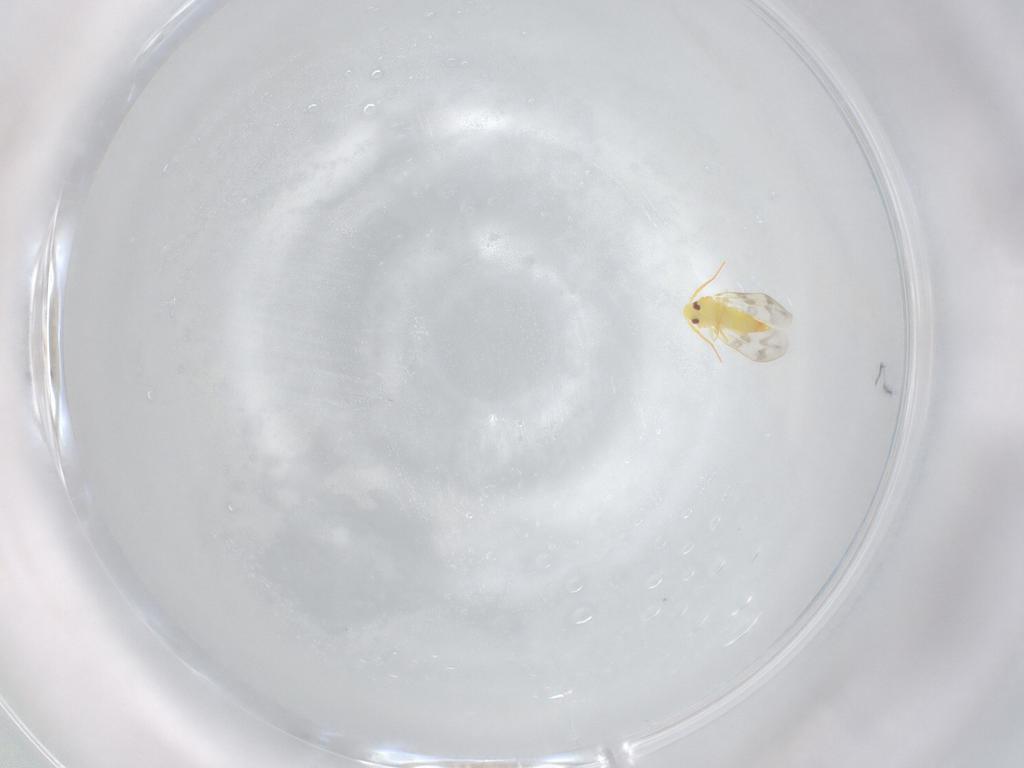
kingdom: Animalia
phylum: Arthropoda
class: Insecta
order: Hemiptera
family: Aleyrodidae
